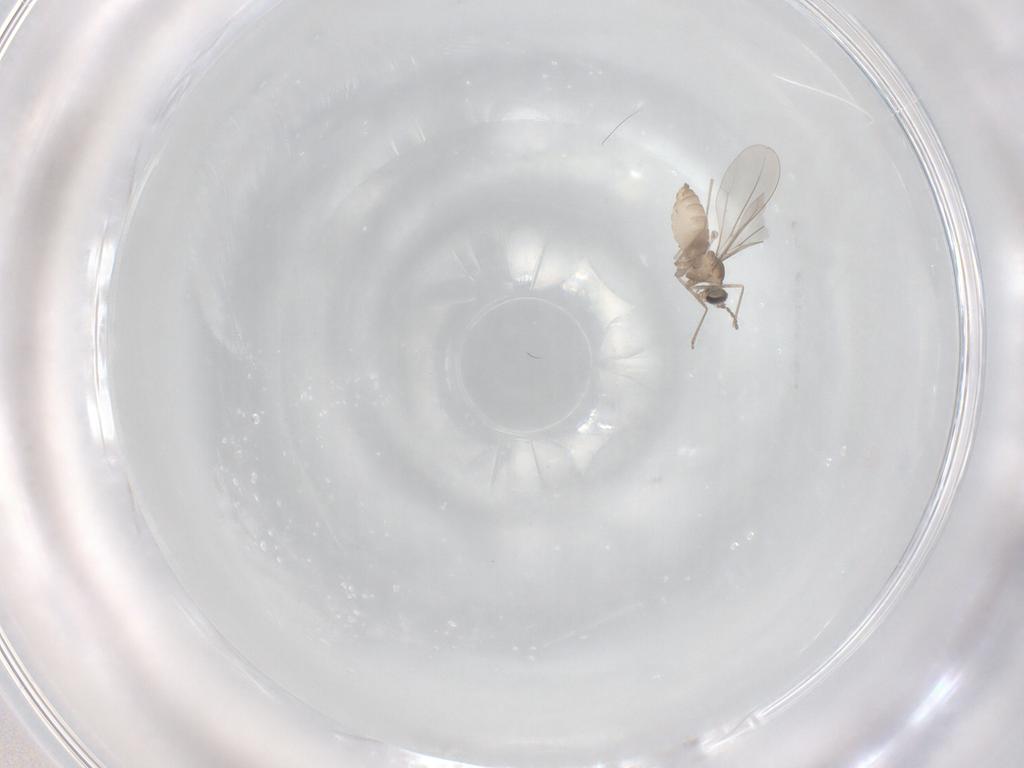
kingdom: Animalia
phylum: Arthropoda
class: Insecta
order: Diptera
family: Cecidomyiidae
